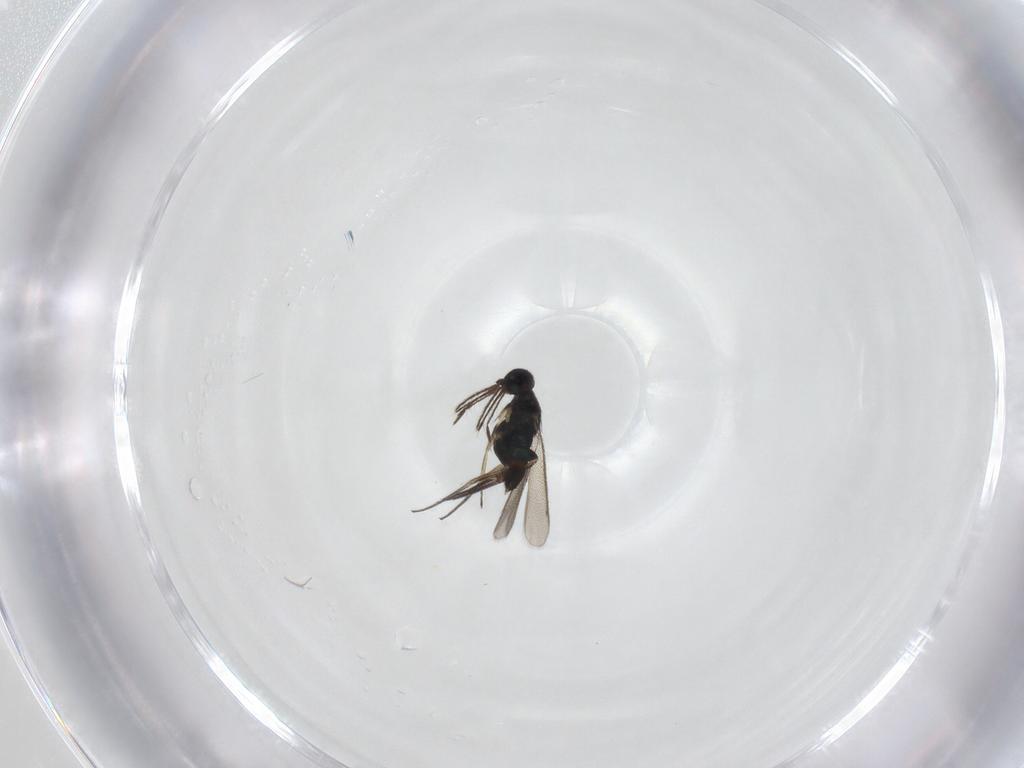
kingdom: Animalia
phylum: Arthropoda
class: Insecta
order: Hymenoptera
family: Eulophidae
